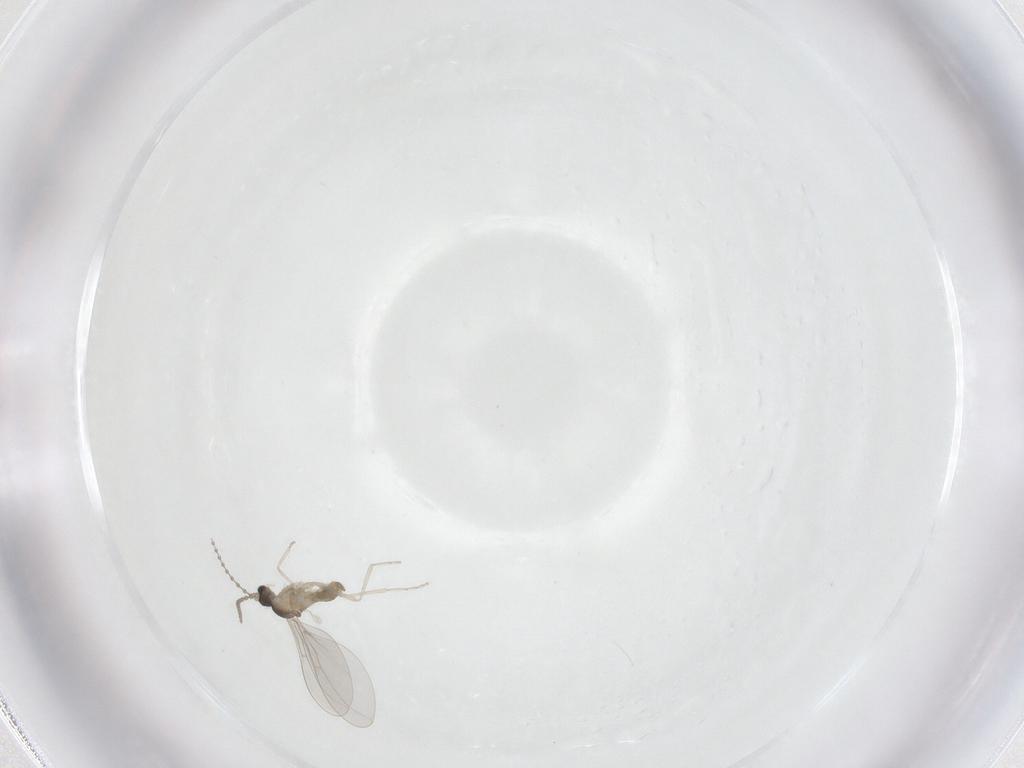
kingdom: Animalia
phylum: Arthropoda
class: Insecta
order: Diptera
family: Cecidomyiidae
